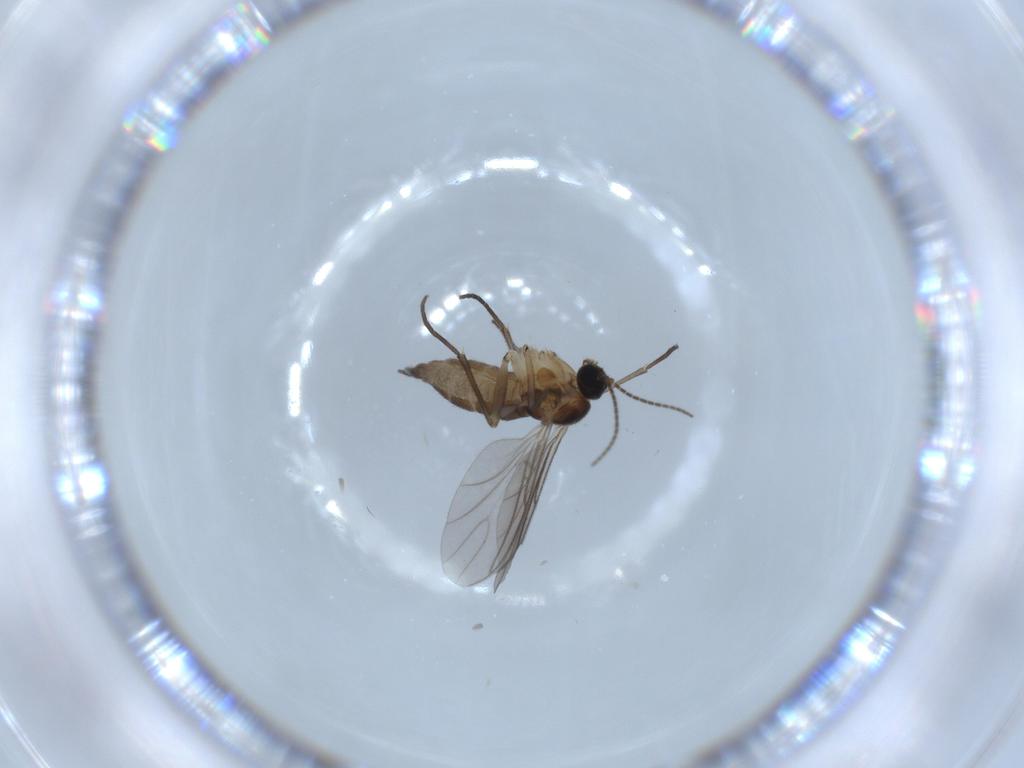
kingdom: Animalia
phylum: Arthropoda
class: Insecta
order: Diptera
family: Sciaridae
